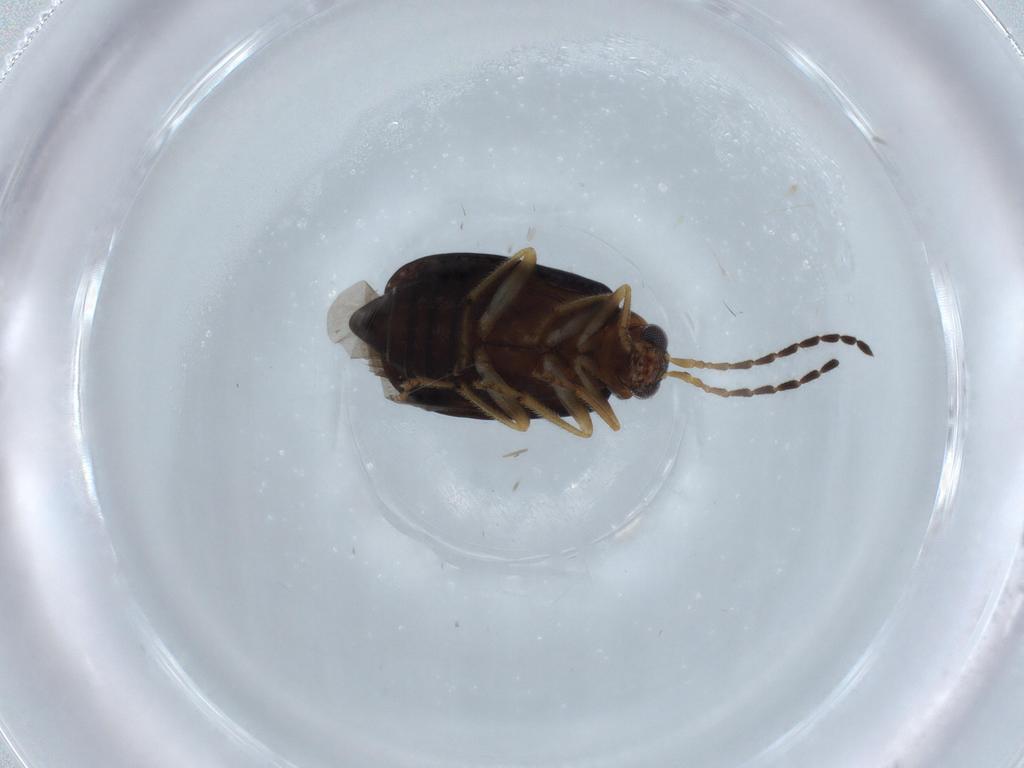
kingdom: Animalia
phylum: Arthropoda
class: Insecta
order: Coleoptera
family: Chrysomelidae
